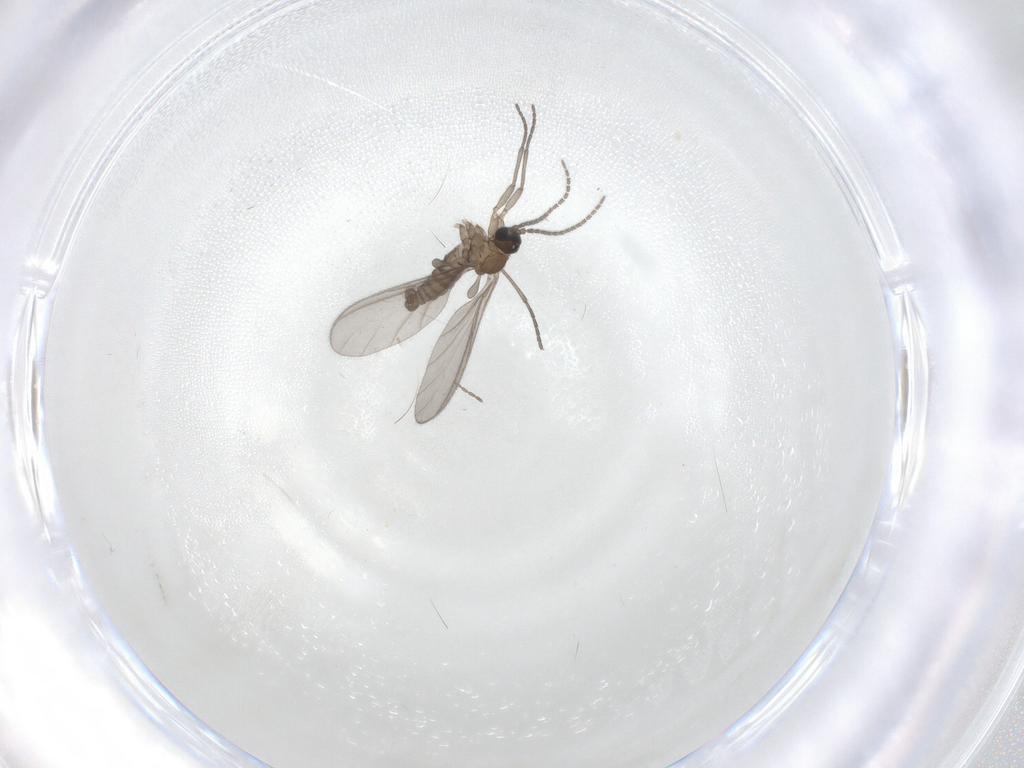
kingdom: Animalia
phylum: Arthropoda
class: Insecta
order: Diptera
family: Sciaridae
